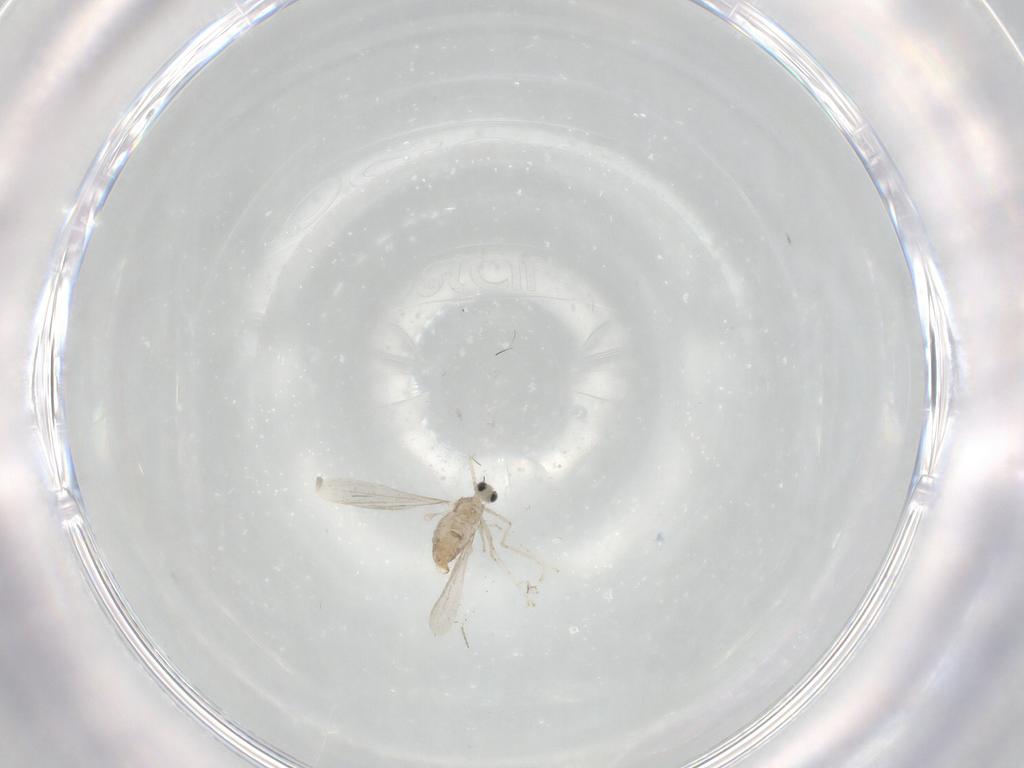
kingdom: Animalia
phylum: Arthropoda
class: Insecta
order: Diptera
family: Cecidomyiidae
